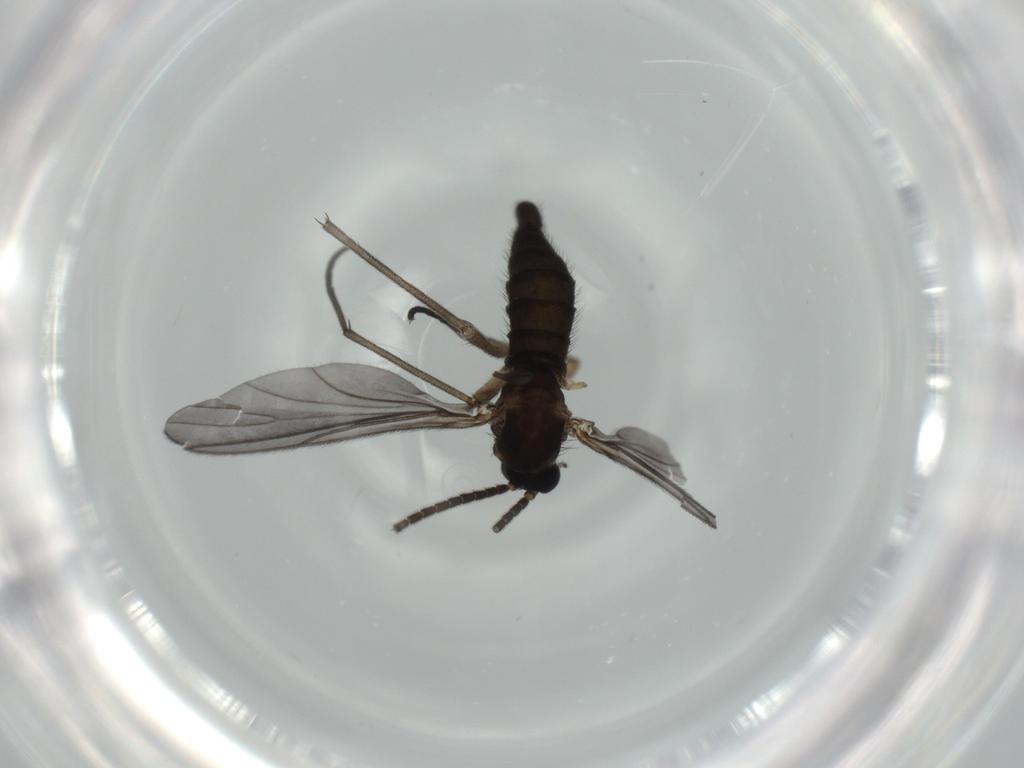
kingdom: Animalia
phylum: Arthropoda
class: Insecta
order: Diptera
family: Sciaridae
